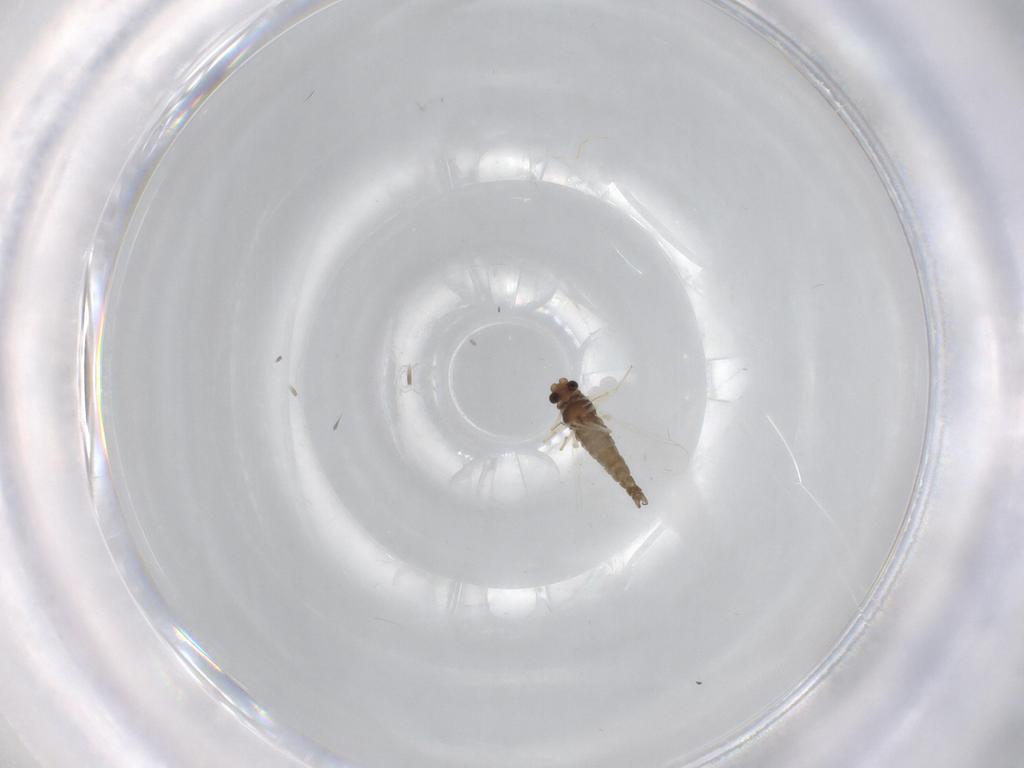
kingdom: Animalia
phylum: Arthropoda
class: Insecta
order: Diptera
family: Chironomidae
